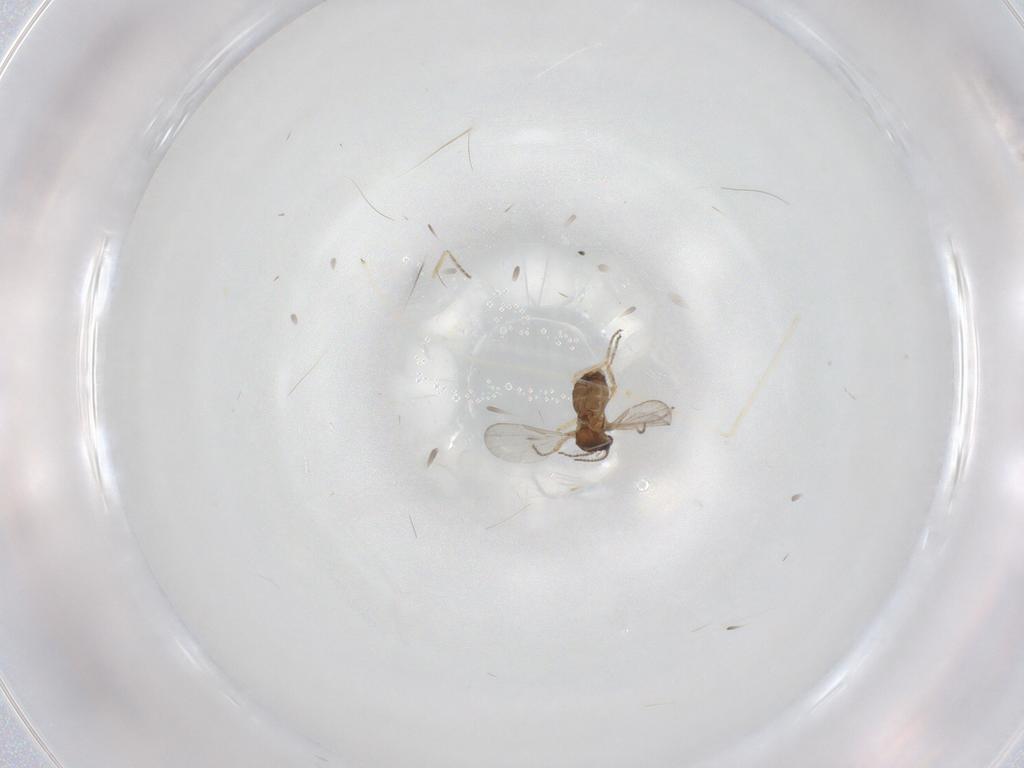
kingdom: Animalia
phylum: Arthropoda
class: Insecta
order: Diptera
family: Ceratopogonidae
